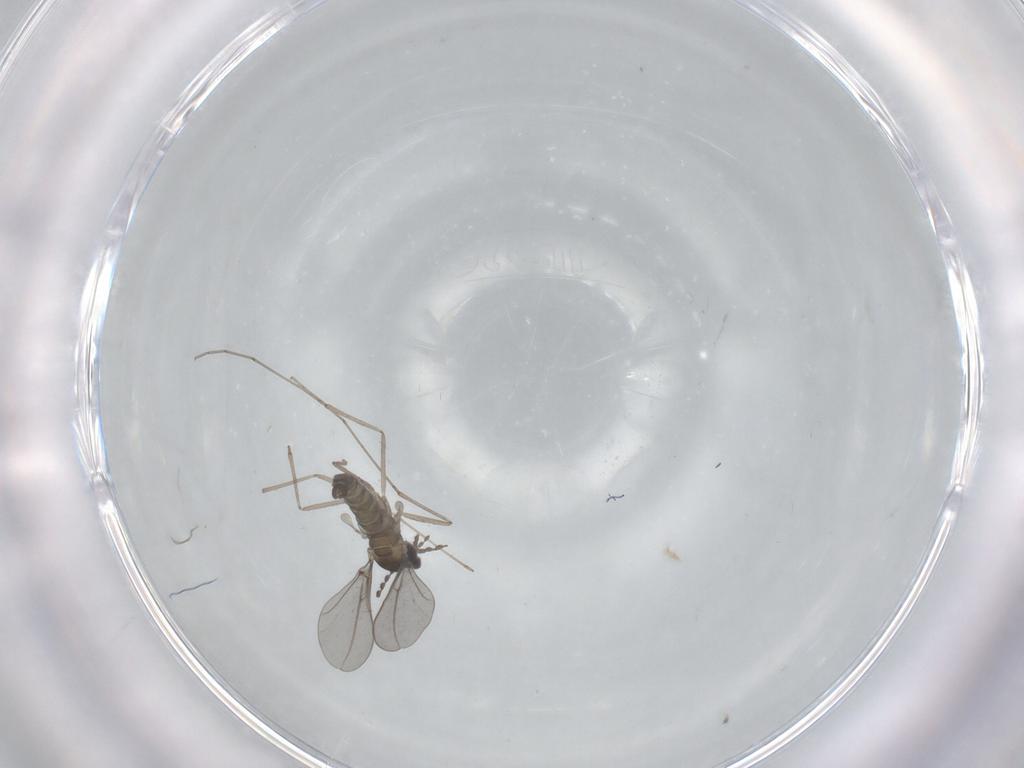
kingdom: Animalia
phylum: Arthropoda
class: Insecta
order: Diptera
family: Cecidomyiidae
